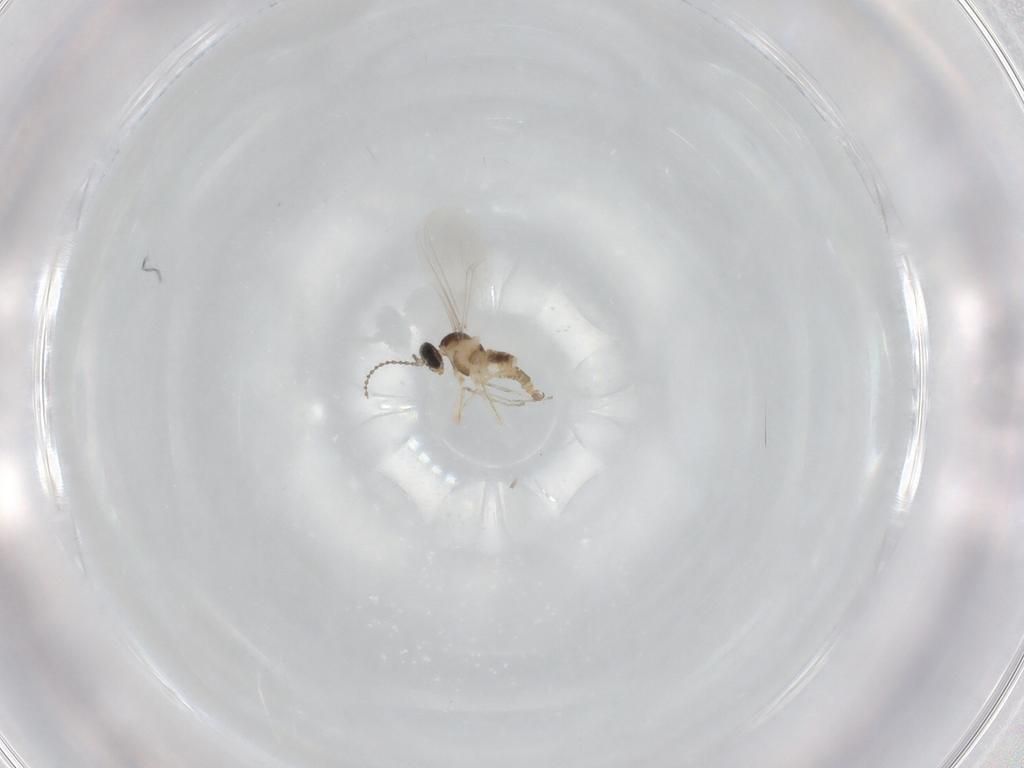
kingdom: Animalia
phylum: Arthropoda
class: Insecta
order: Diptera
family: Cecidomyiidae
